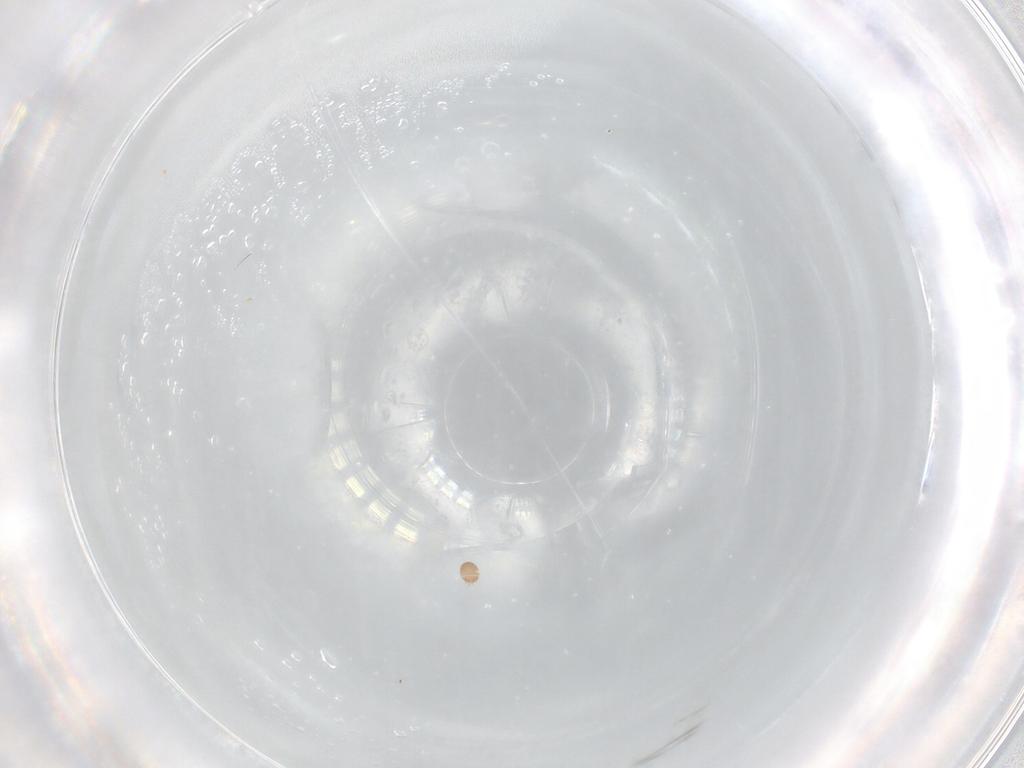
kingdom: Animalia
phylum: Arthropoda
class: Arachnida
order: Sarcoptiformes
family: Acaridae
